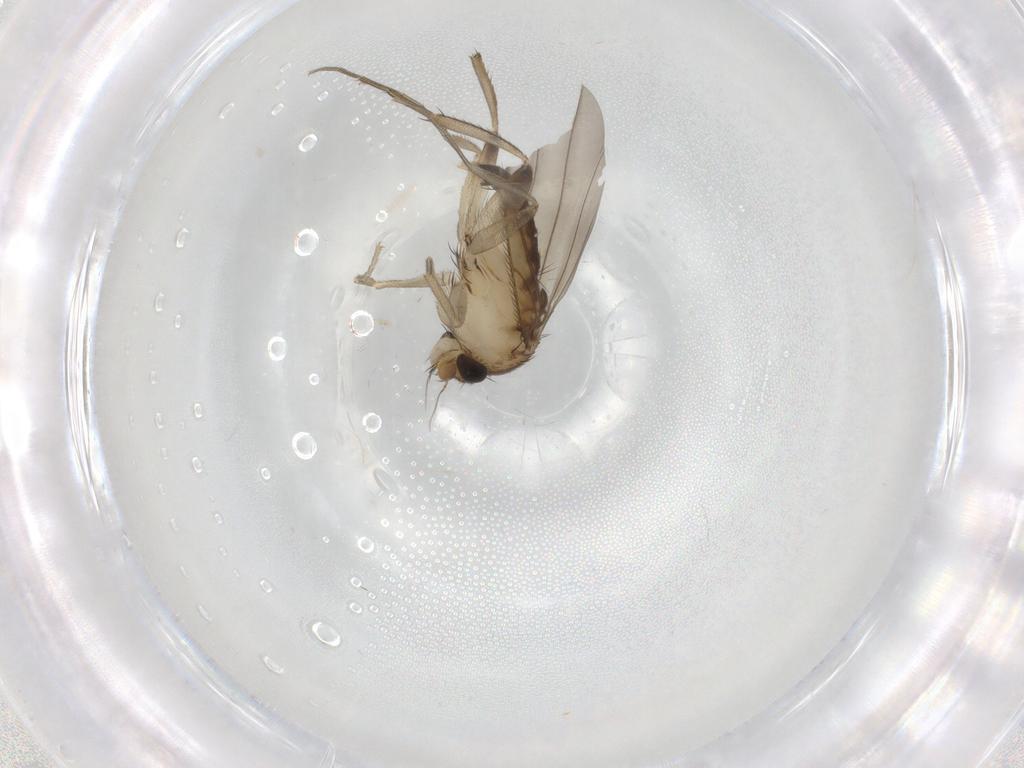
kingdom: Animalia
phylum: Arthropoda
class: Insecta
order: Diptera
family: Phoridae
